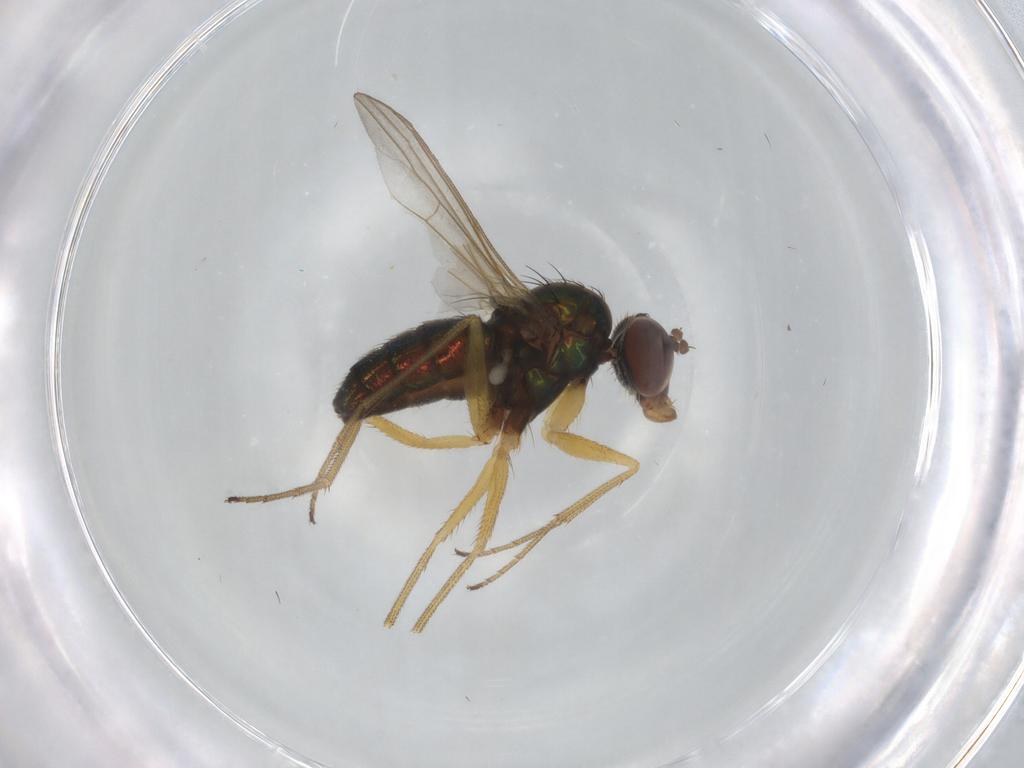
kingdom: Animalia
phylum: Arthropoda
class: Insecta
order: Diptera
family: Dolichopodidae
